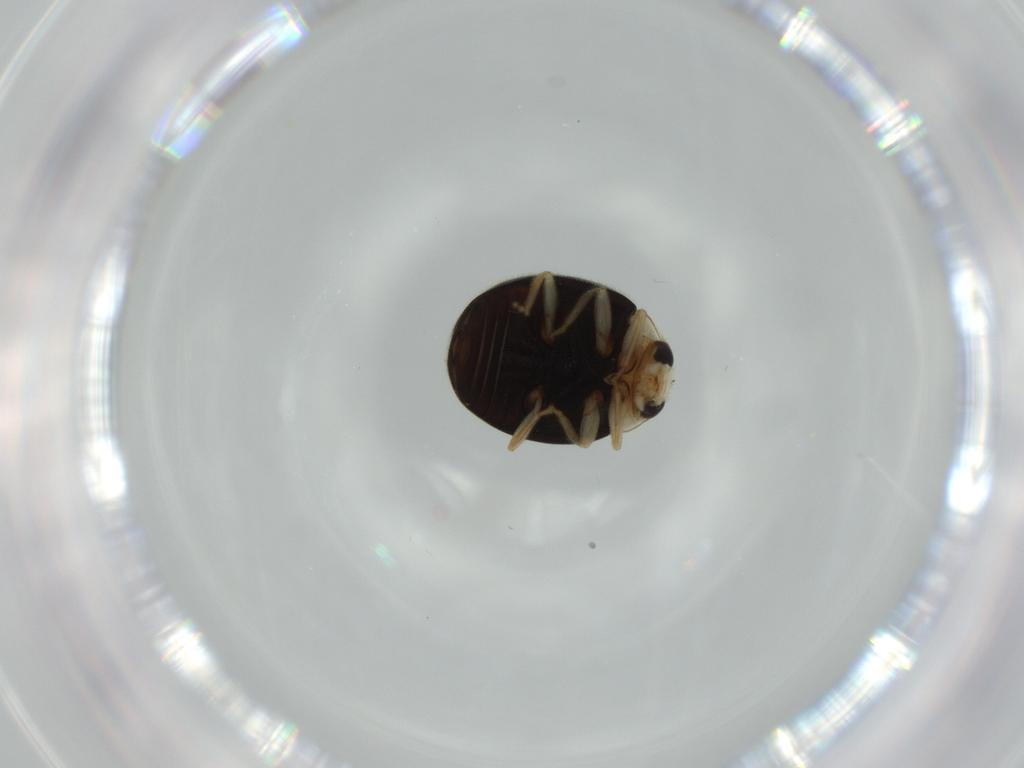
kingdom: Animalia
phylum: Arthropoda
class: Insecta
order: Coleoptera
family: Coccinellidae
